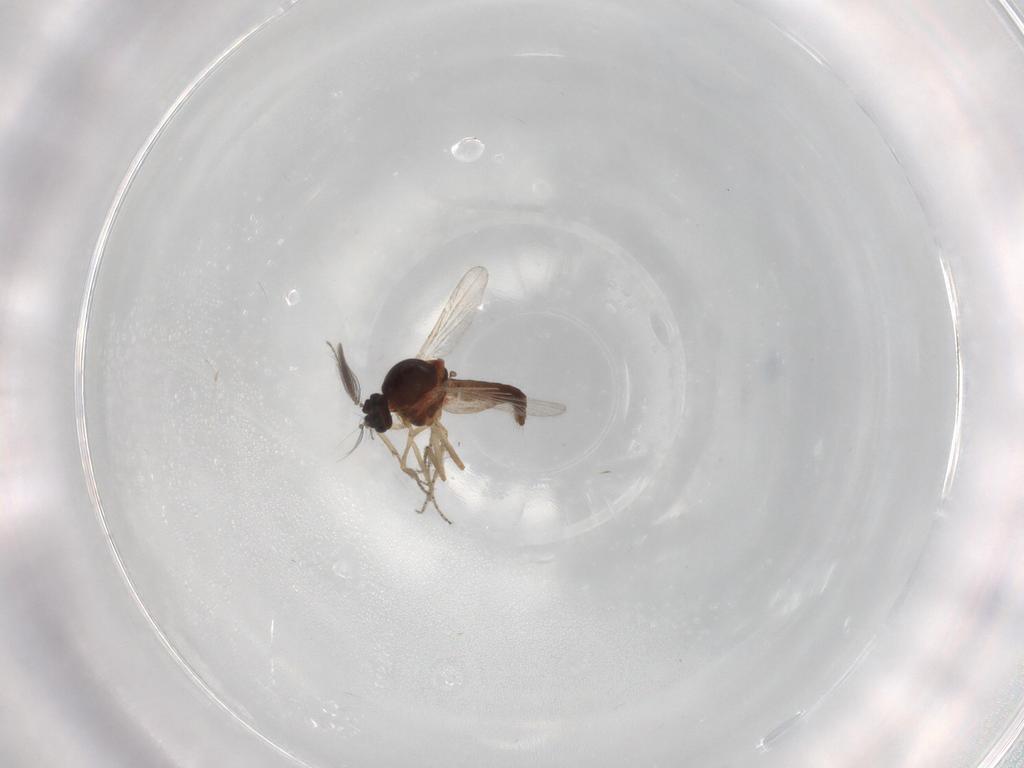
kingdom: Animalia
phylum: Arthropoda
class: Insecta
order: Diptera
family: Ceratopogonidae
